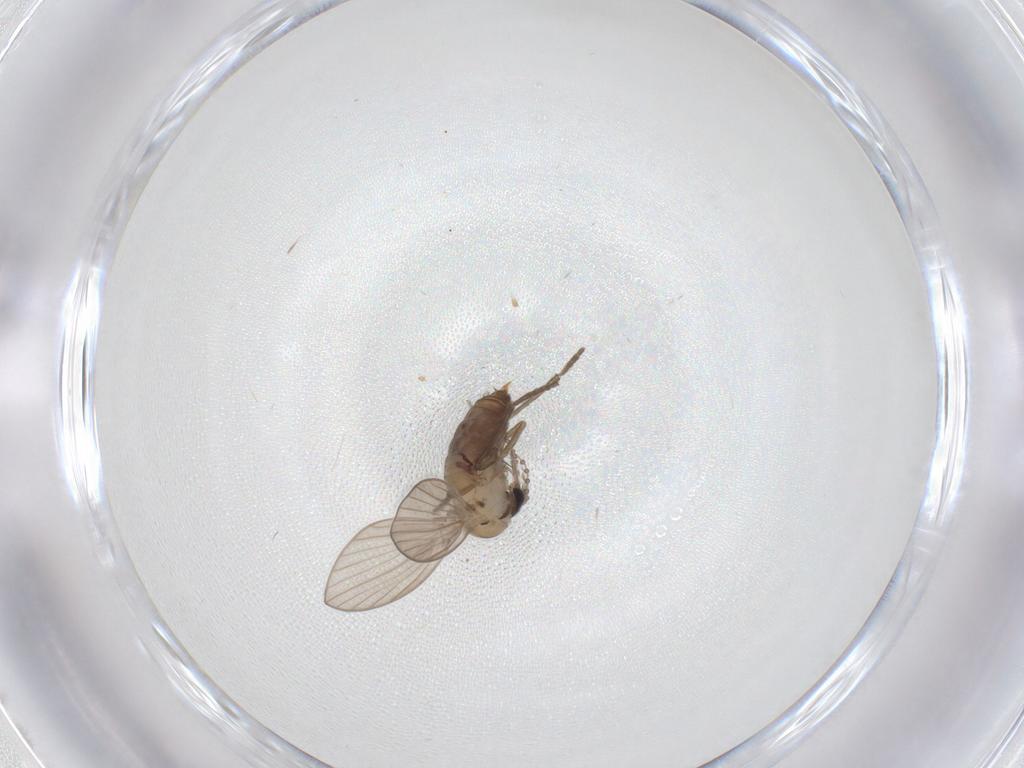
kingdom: Animalia
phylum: Arthropoda
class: Insecta
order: Diptera
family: Psychodidae
